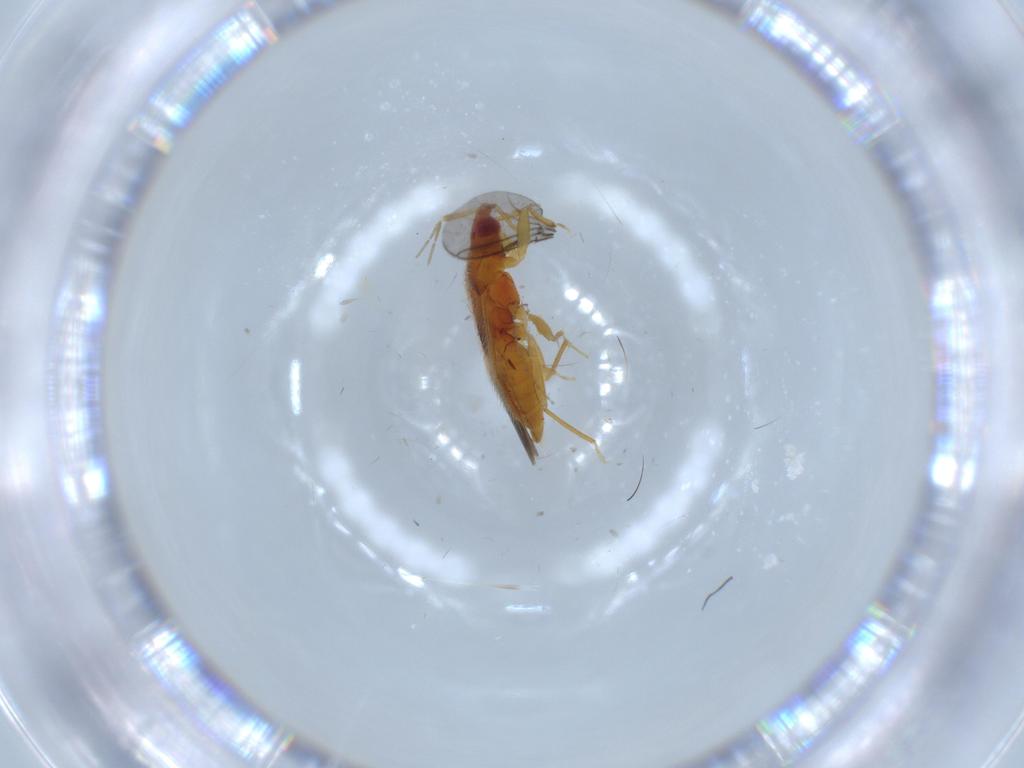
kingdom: Animalia
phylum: Arthropoda
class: Insecta
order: Hemiptera
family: Anthocoridae
